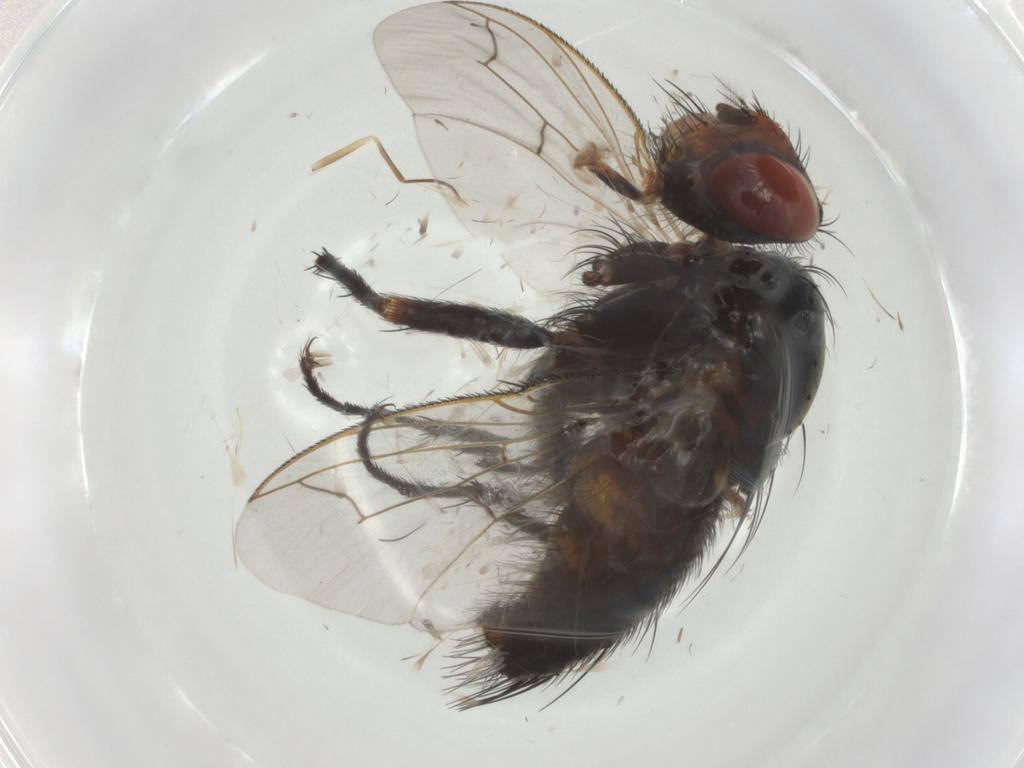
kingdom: Animalia
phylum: Arthropoda
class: Insecta
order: Diptera
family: Tachinidae
